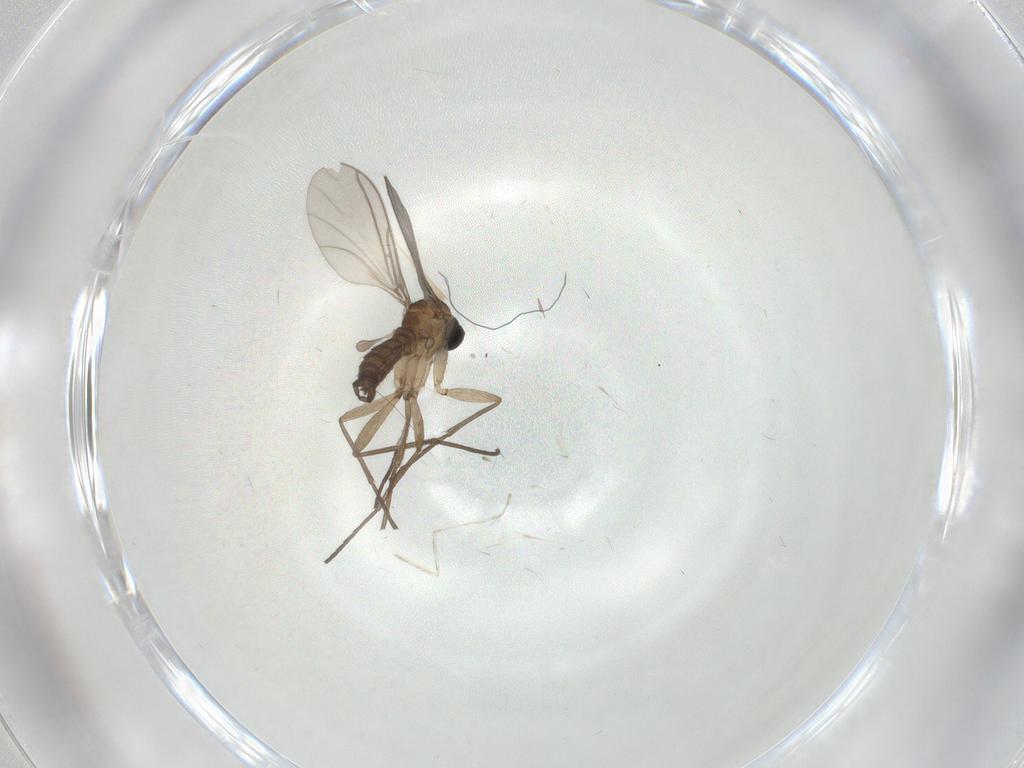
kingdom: Animalia
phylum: Arthropoda
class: Insecta
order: Diptera
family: Sciaridae
